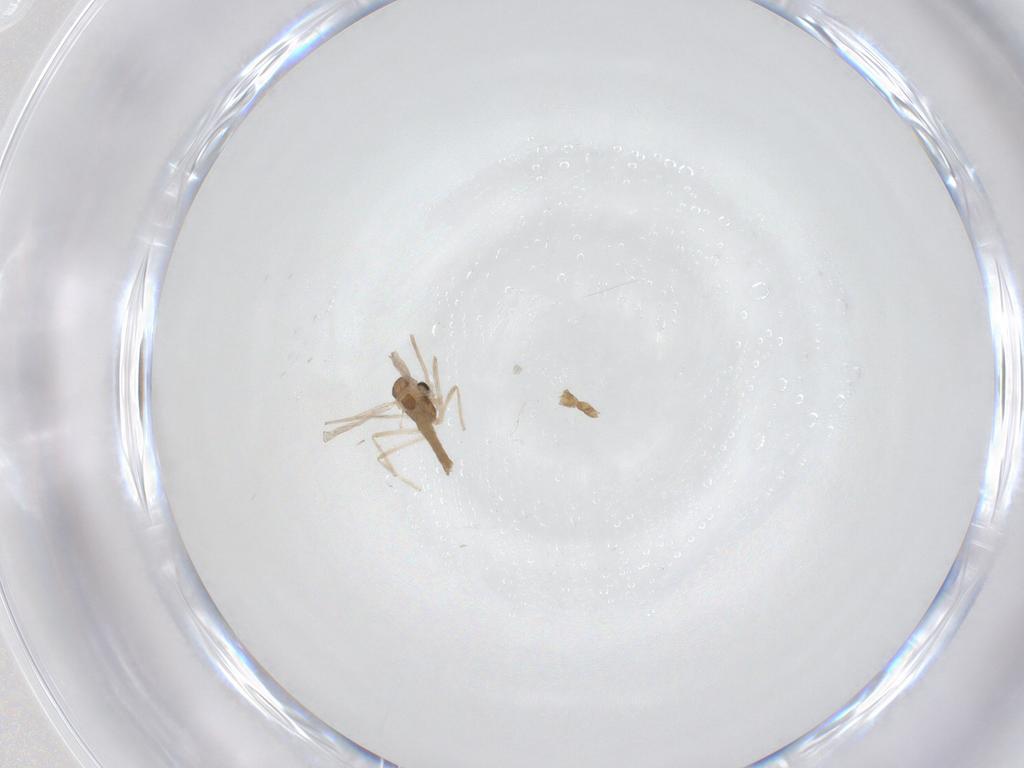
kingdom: Animalia
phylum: Arthropoda
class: Insecta
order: Diptera
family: Chironomidae
